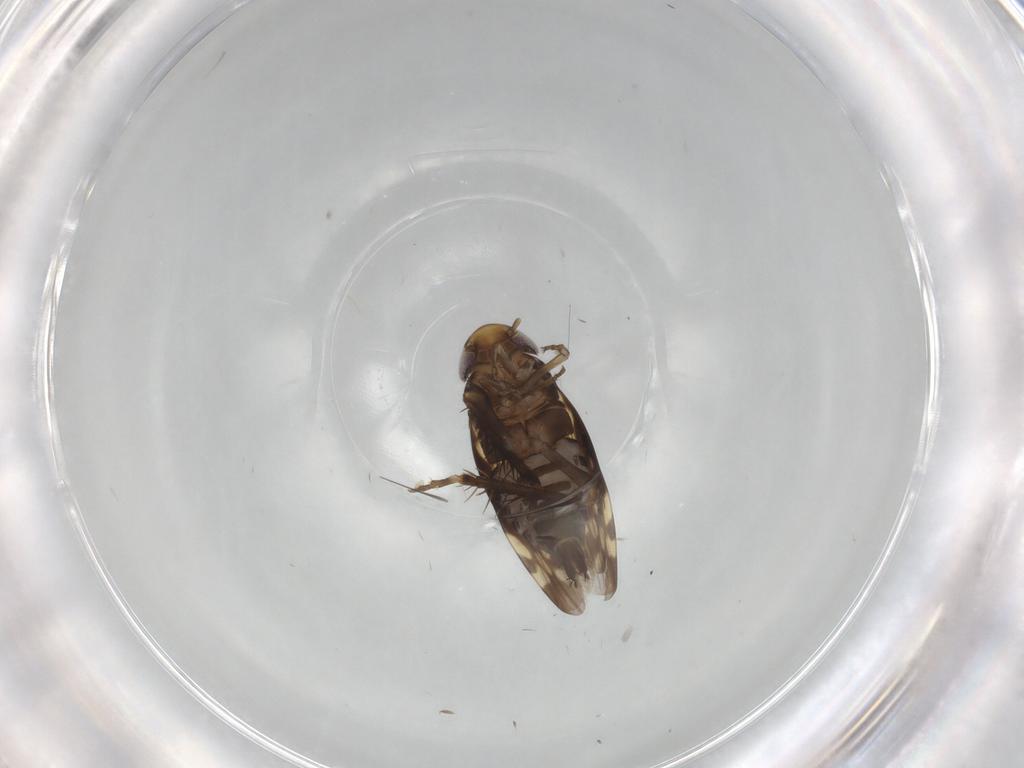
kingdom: Animalia
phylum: Arthropoda
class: Insecta
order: Hemiptera
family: Cicadellidae
